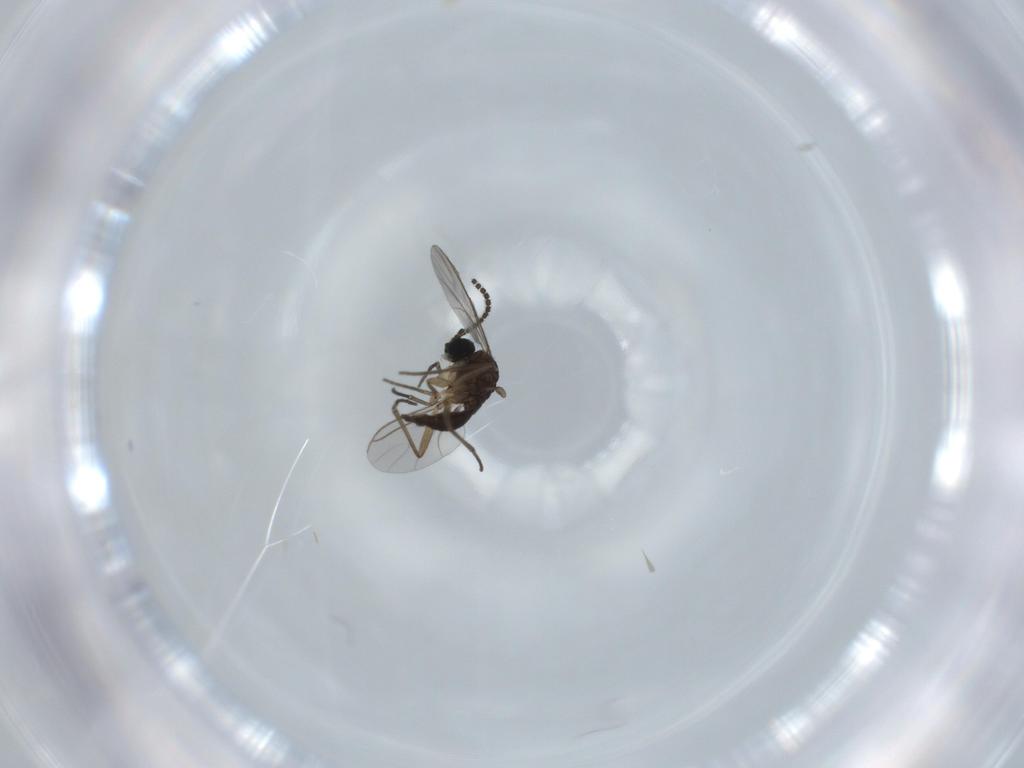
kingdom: Animalia
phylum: Arthropoda
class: Insecta
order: Diptera
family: Sciaridae
